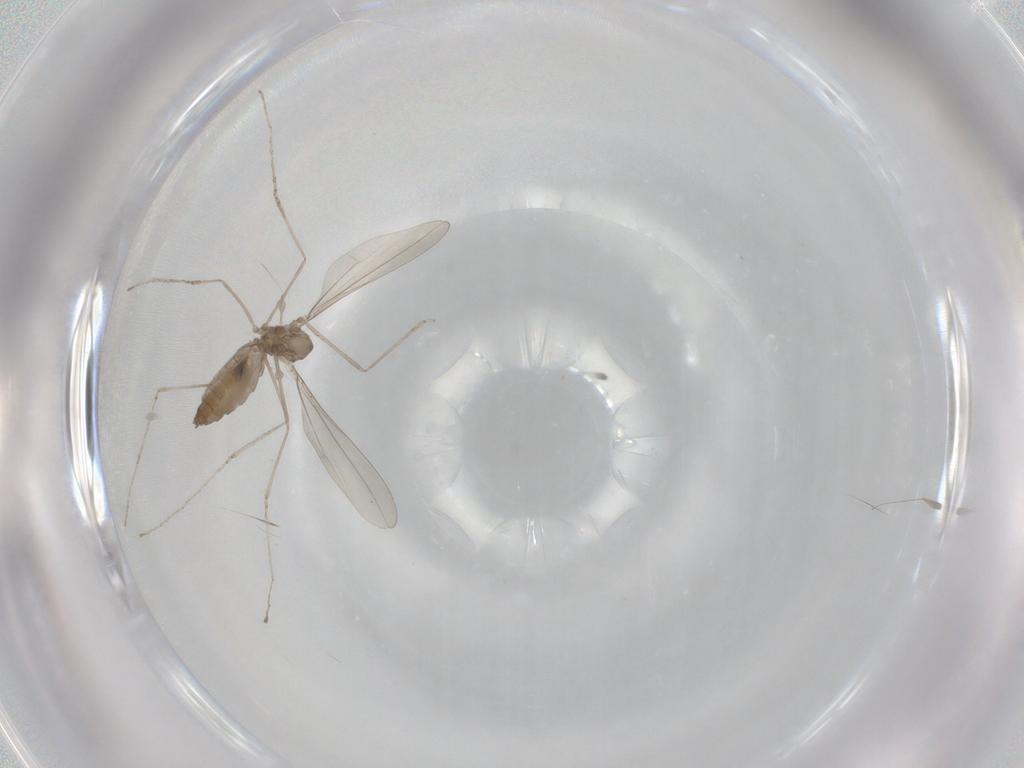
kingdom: Animalia
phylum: Arthropoda
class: Insecta
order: Diptera
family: Cecidomyiidae
